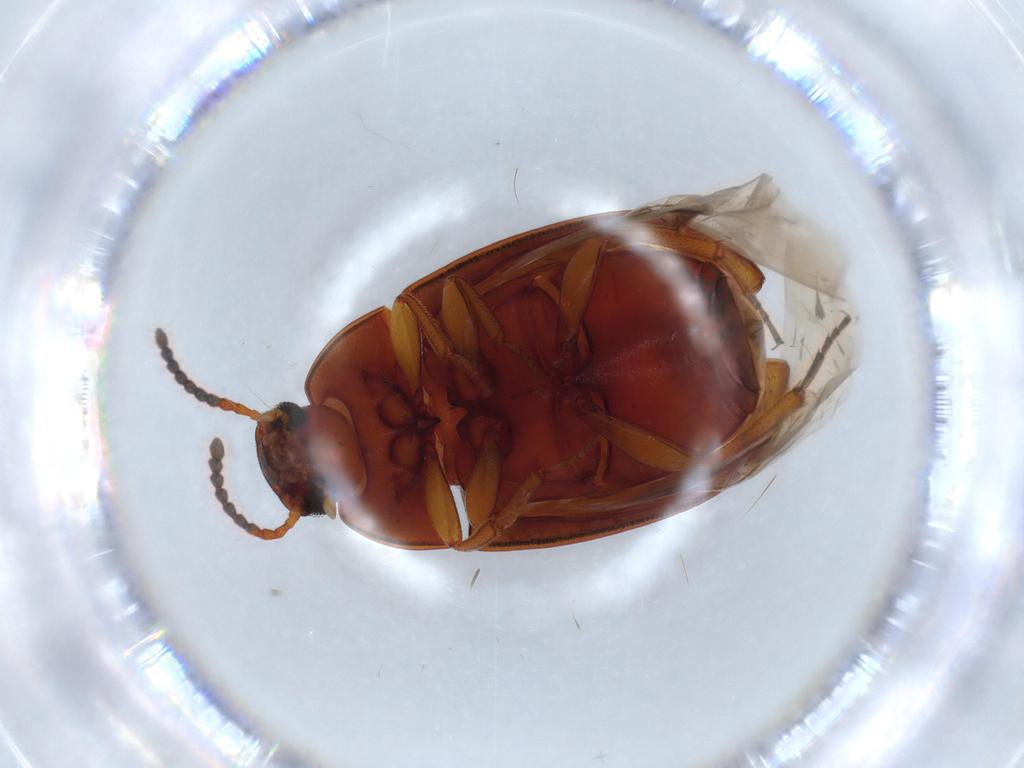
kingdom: Animalia
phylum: Arthropoda
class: Insecta
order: Coleoptera
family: Tenebrionidae
